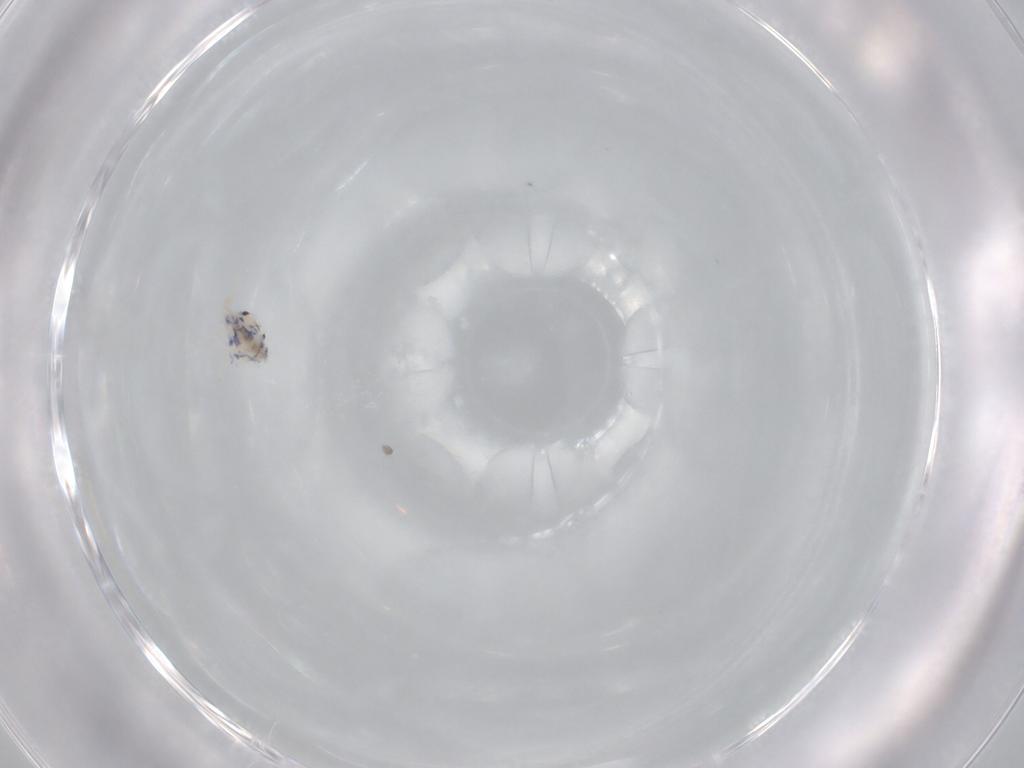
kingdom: Animalia
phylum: Arthropoda
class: Collembola
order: Entomobryomorpha
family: Entomobryidae
